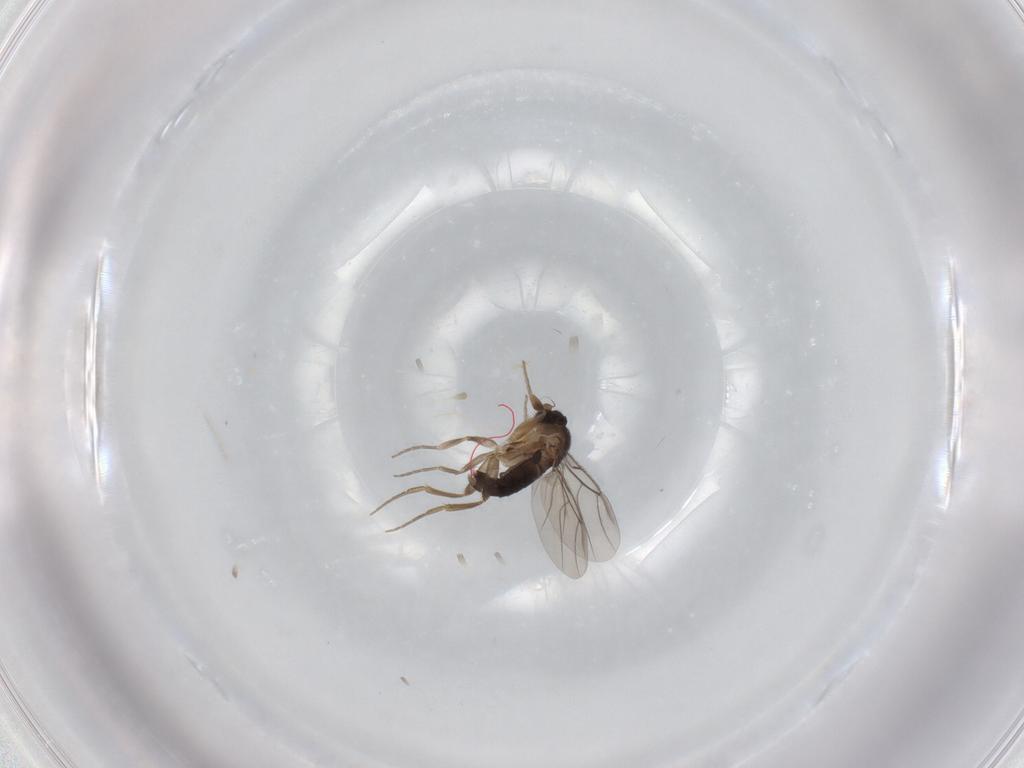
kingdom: Animalia
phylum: Arthropoda
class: Insecta
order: Diptera
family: Phoridae
